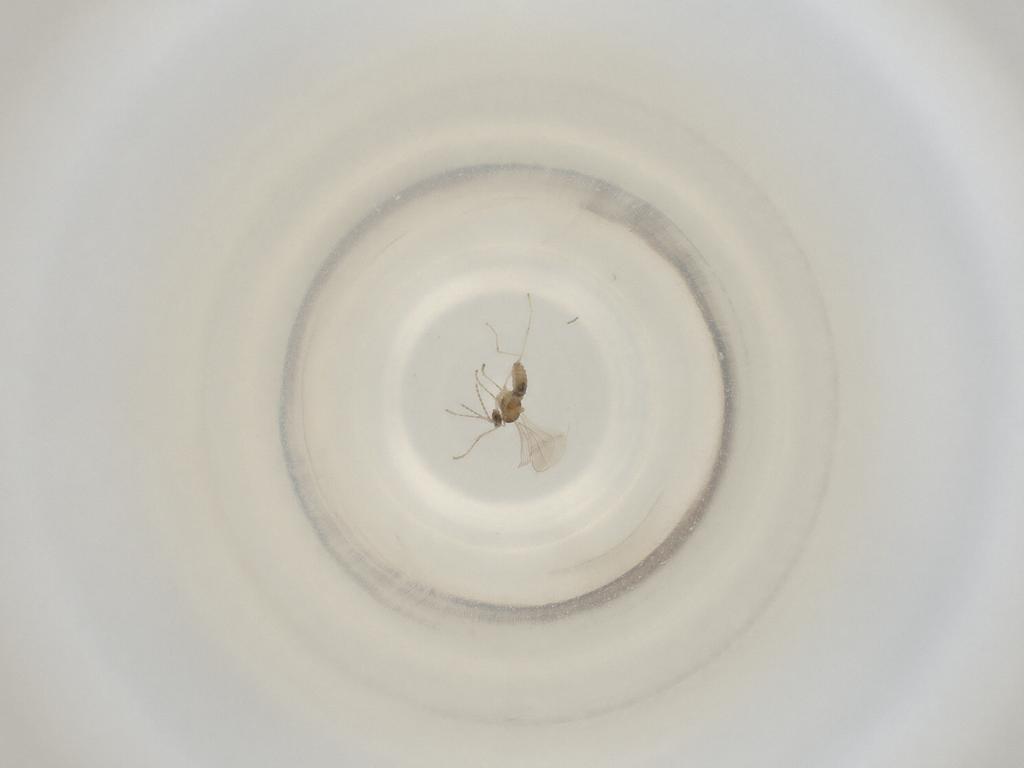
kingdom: Animalia
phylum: Arthropoda
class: Insecta
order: Diptera
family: Cecidomyiidae
